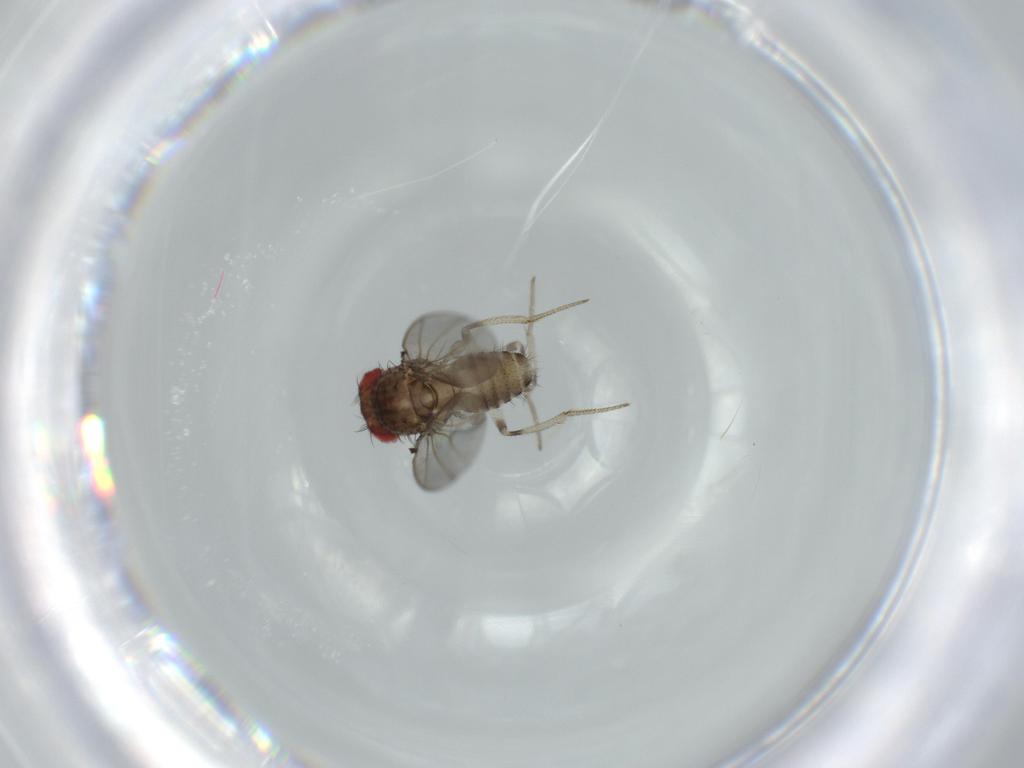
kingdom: Animalia
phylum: Arthropoda
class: Insecta
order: Diptera
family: Drosophilidae
